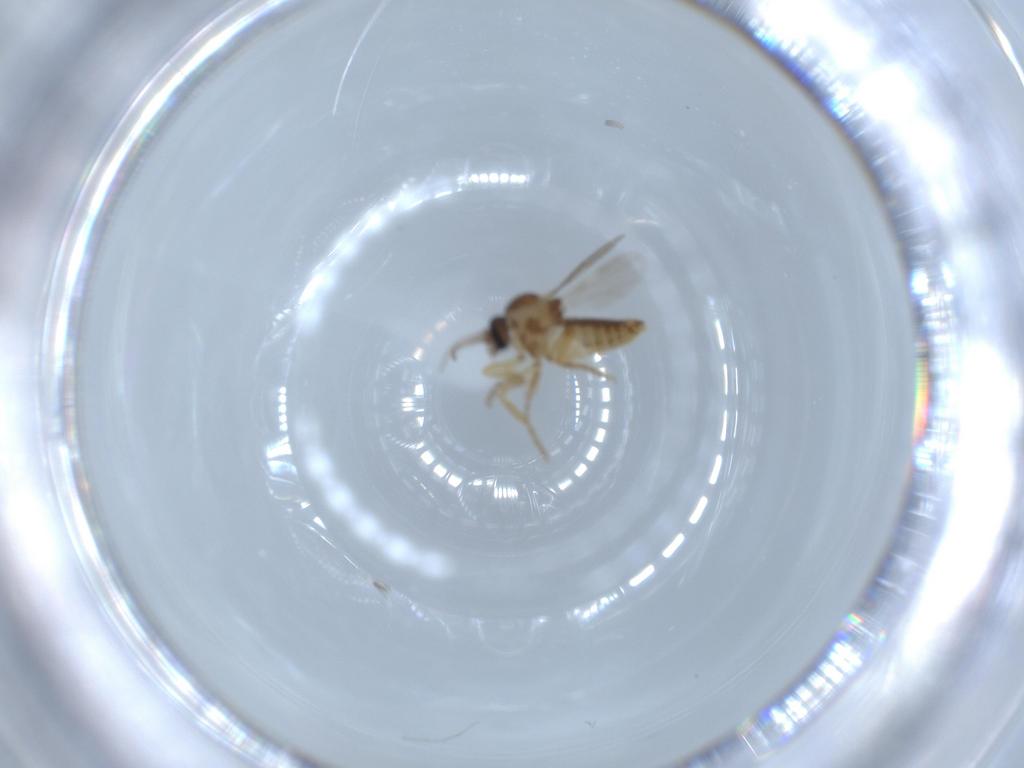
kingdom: Animalia
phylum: Arthropoda
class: Insecta
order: Diptera
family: Ceratopogonidae
